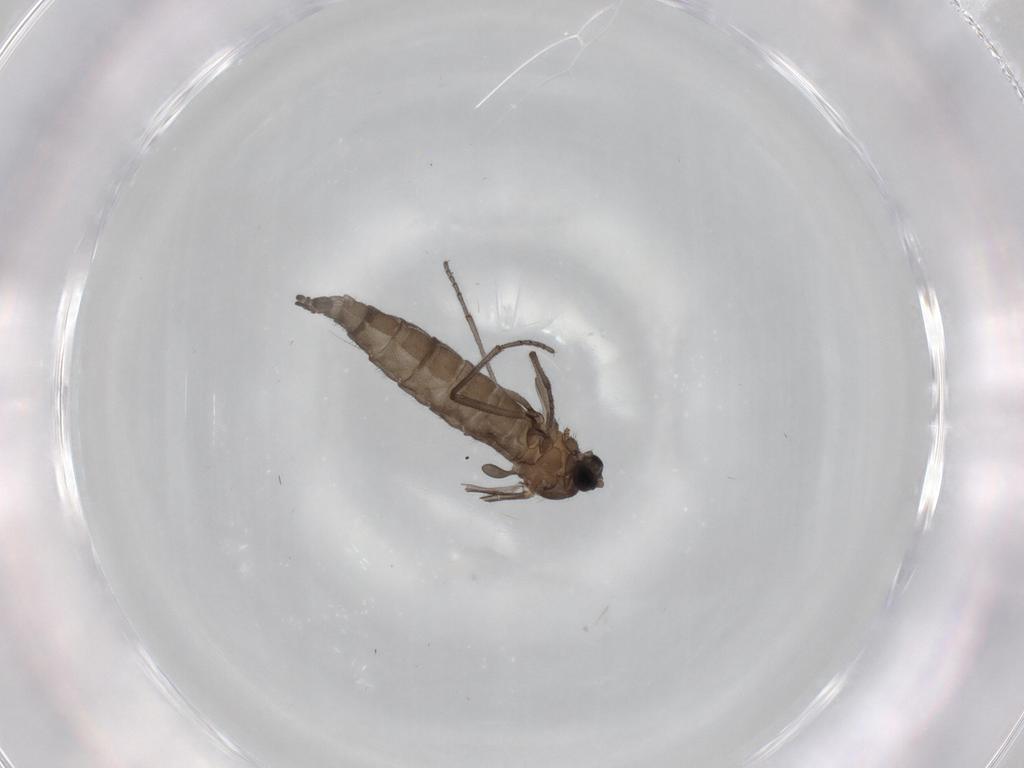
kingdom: Animalia
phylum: Arthropoda
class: Insecta
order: Diptera
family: Sciaridae
